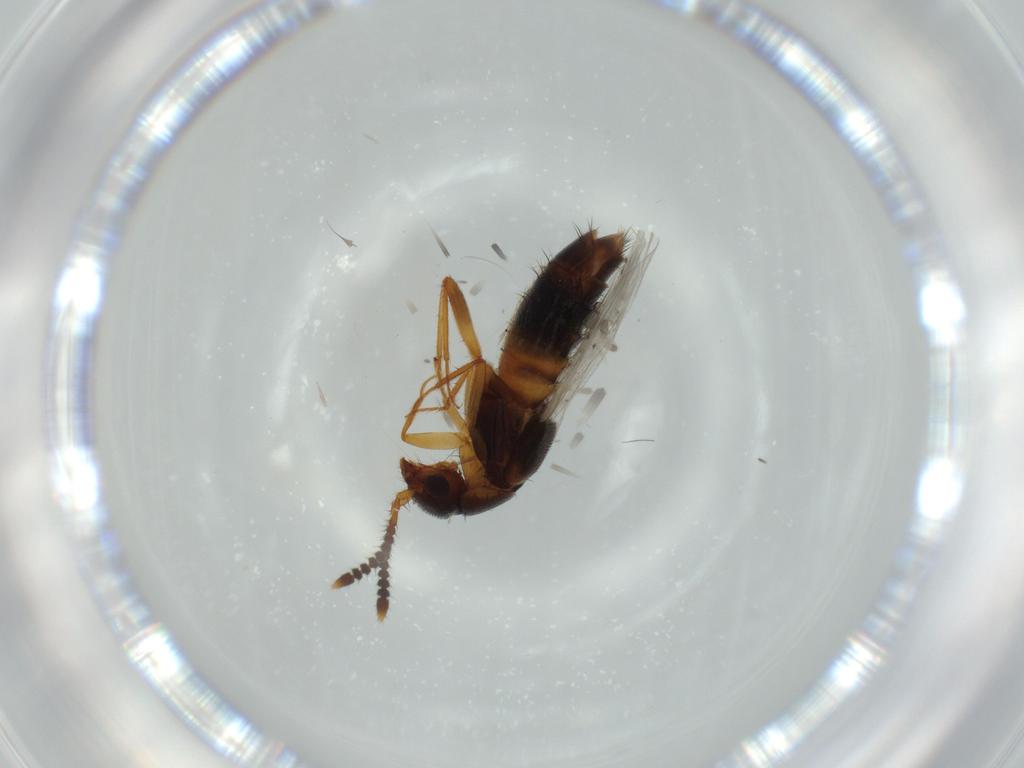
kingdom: Animalia
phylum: Arthropoda
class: Insecta
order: Coleoptera
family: Staphylinidae
